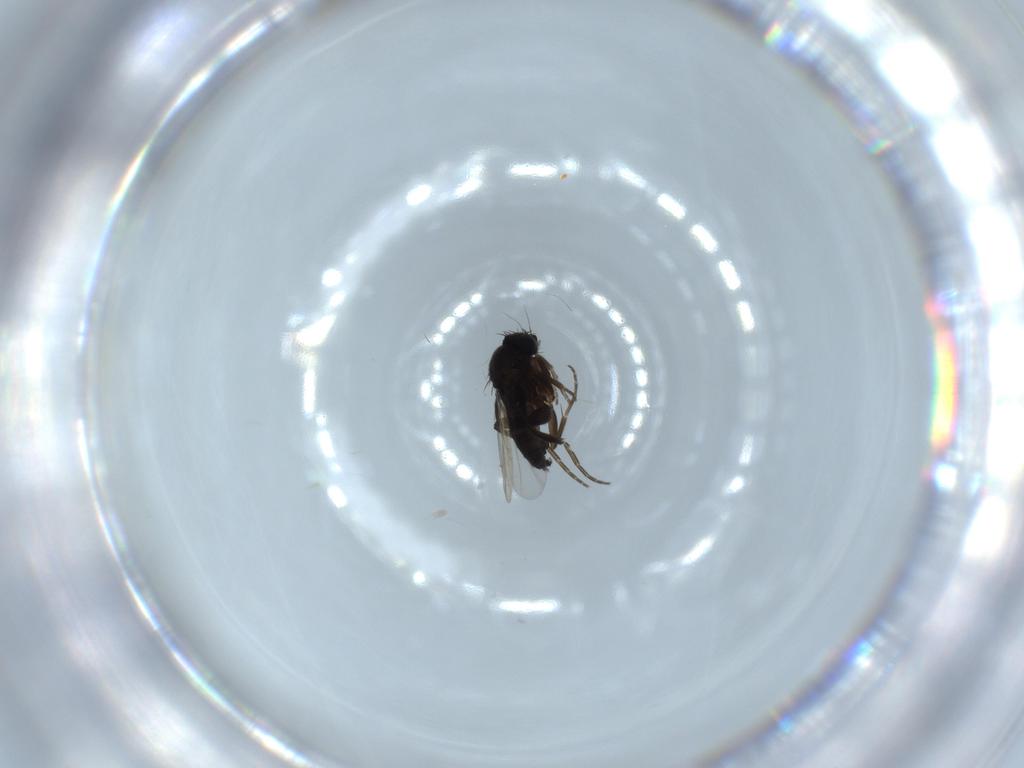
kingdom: Animalia
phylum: Arthropoda
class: Insecta
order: Diptera
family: Phoridae
